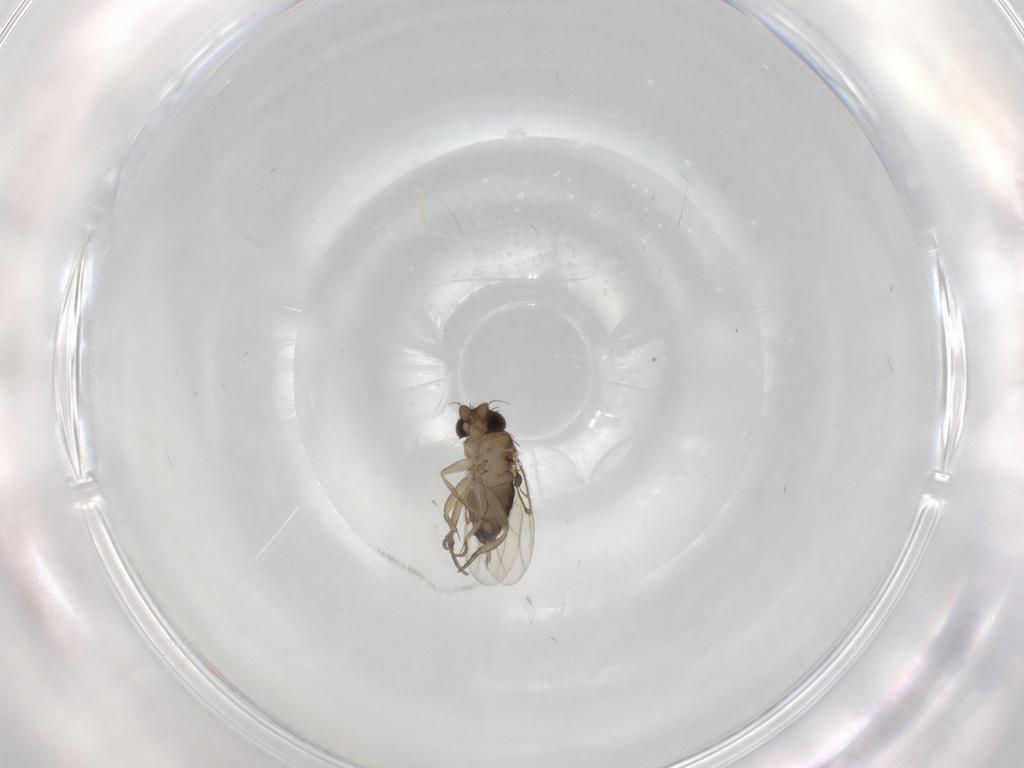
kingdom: Animalia
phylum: Arthropoda
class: Insecta
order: Diptera
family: Phoridae
